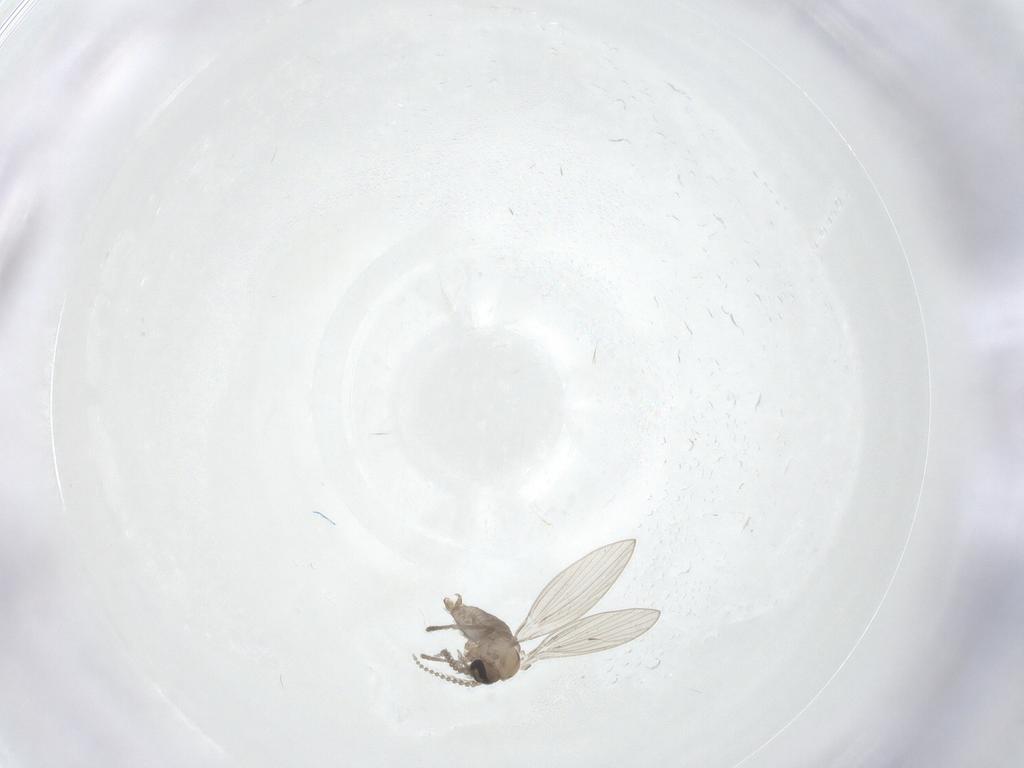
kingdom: Animalia
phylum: Arthropoda
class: Insecta
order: Diptera
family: Psychodidae
